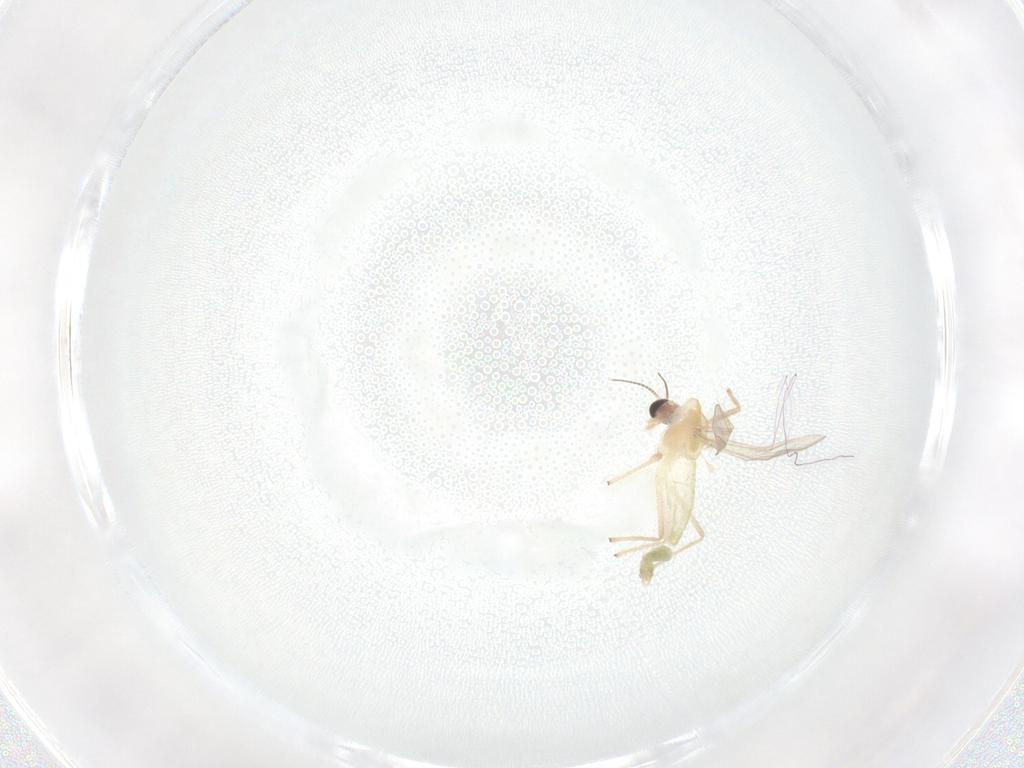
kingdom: Animalia
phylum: Arthropoda
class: Insecta
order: Diptera
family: Chironomidae
